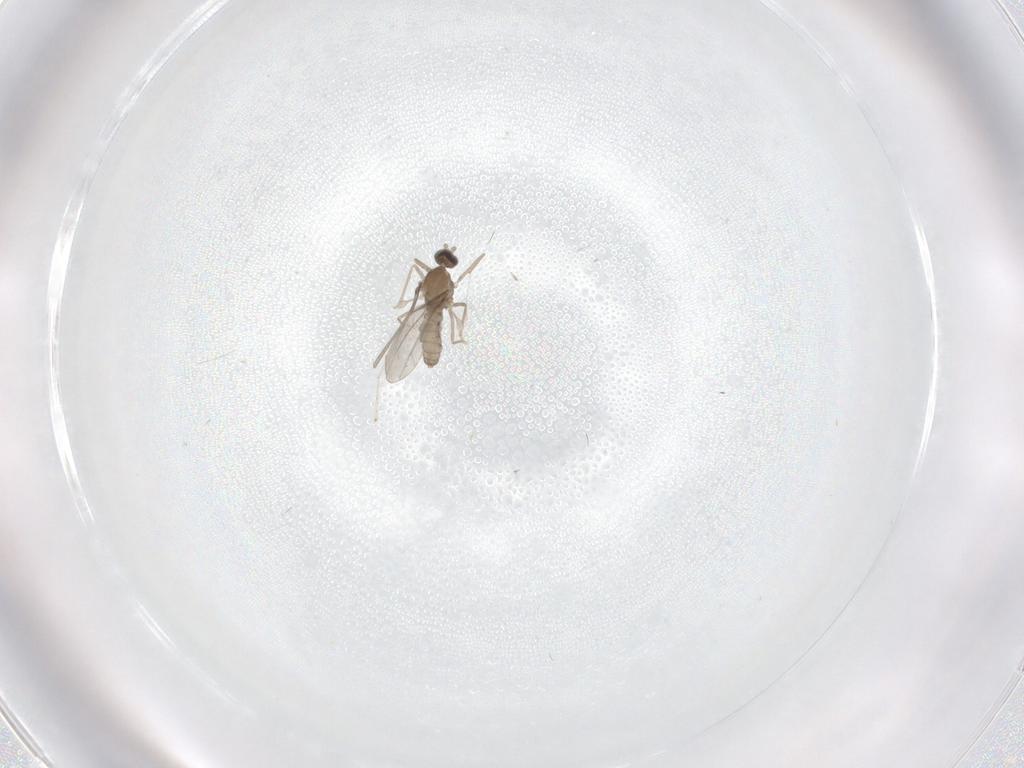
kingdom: Animalia
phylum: Arthropoda
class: Insecta
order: Diptera
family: Cecidomyiidae
